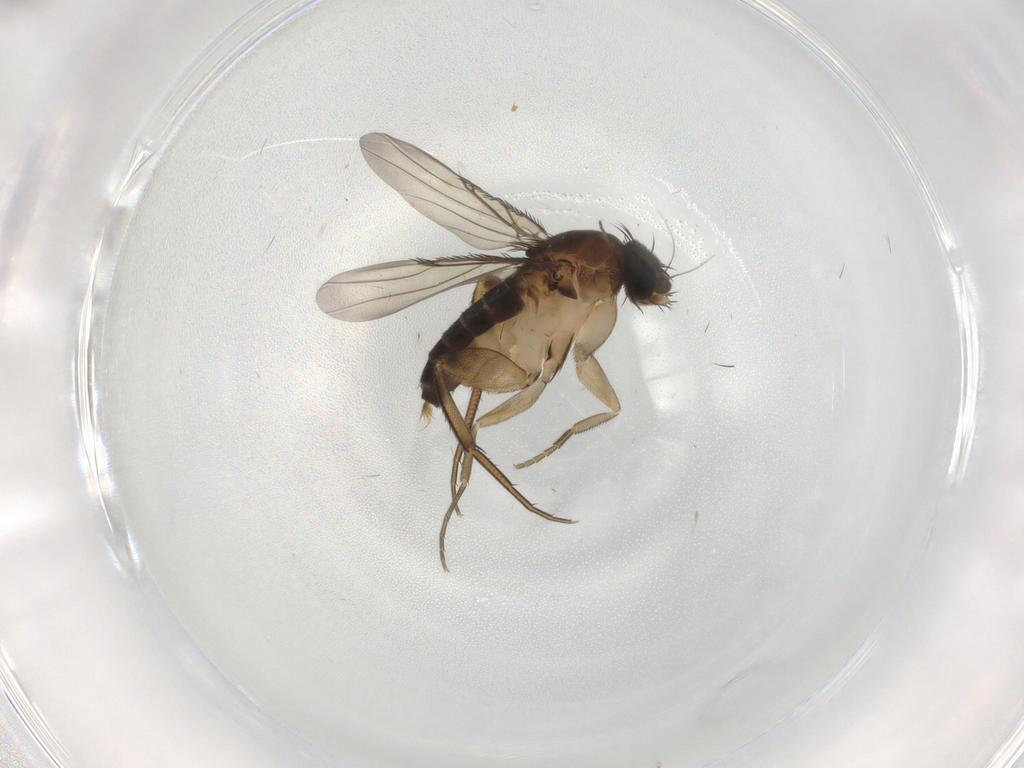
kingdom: Animalia
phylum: Arthropoda
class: Insecta
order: Diptera
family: Phoridae
